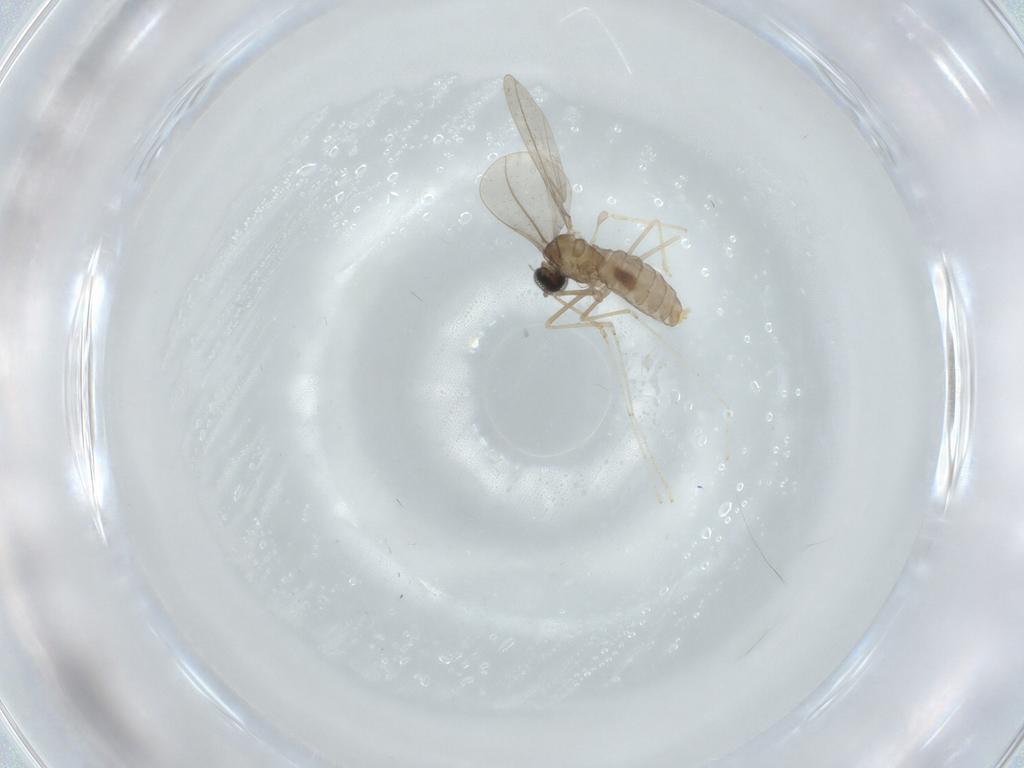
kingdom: Animalia
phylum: Arthropoda
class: Insecta
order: Diptera
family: Cecidomyiidae
